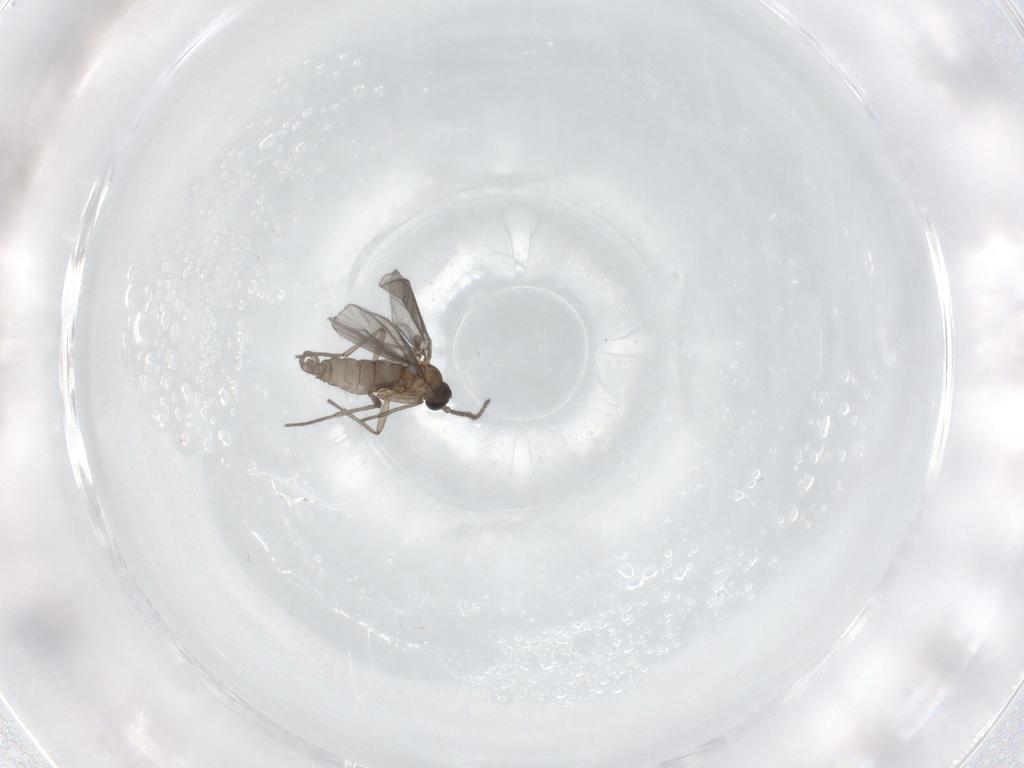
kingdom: Animalia
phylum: Arthropoda
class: Insecta
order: Diptera
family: Sciaridae
